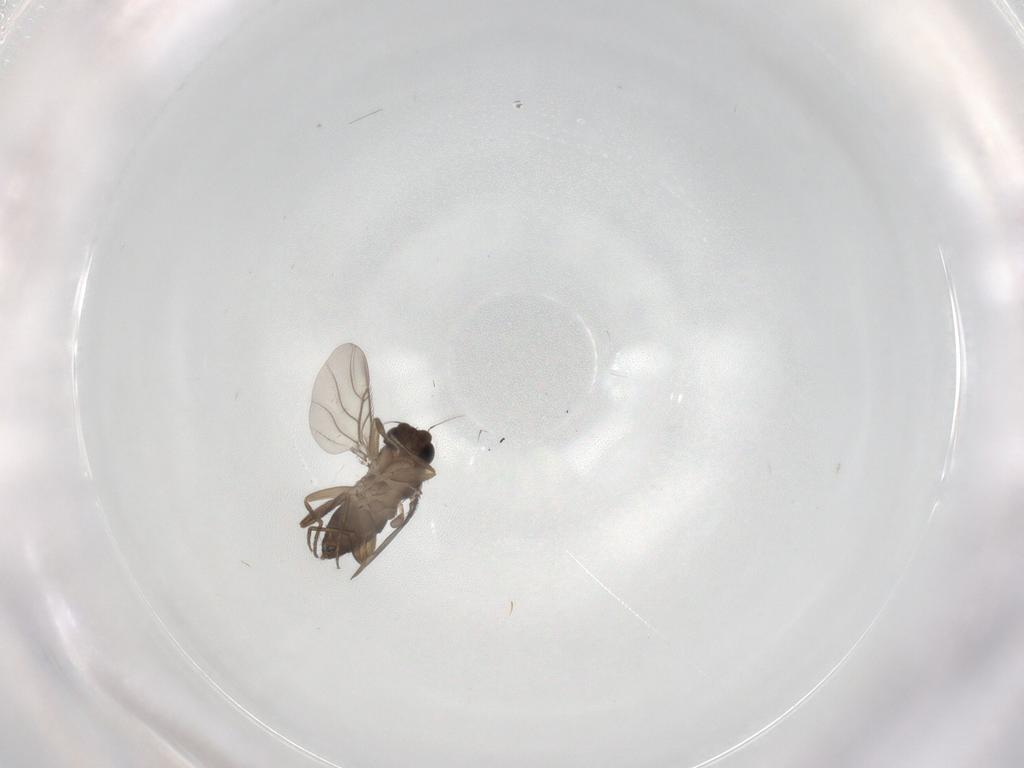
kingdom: Animalia
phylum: Arthropoda
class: Insecta
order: Diptera
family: Phoridae
